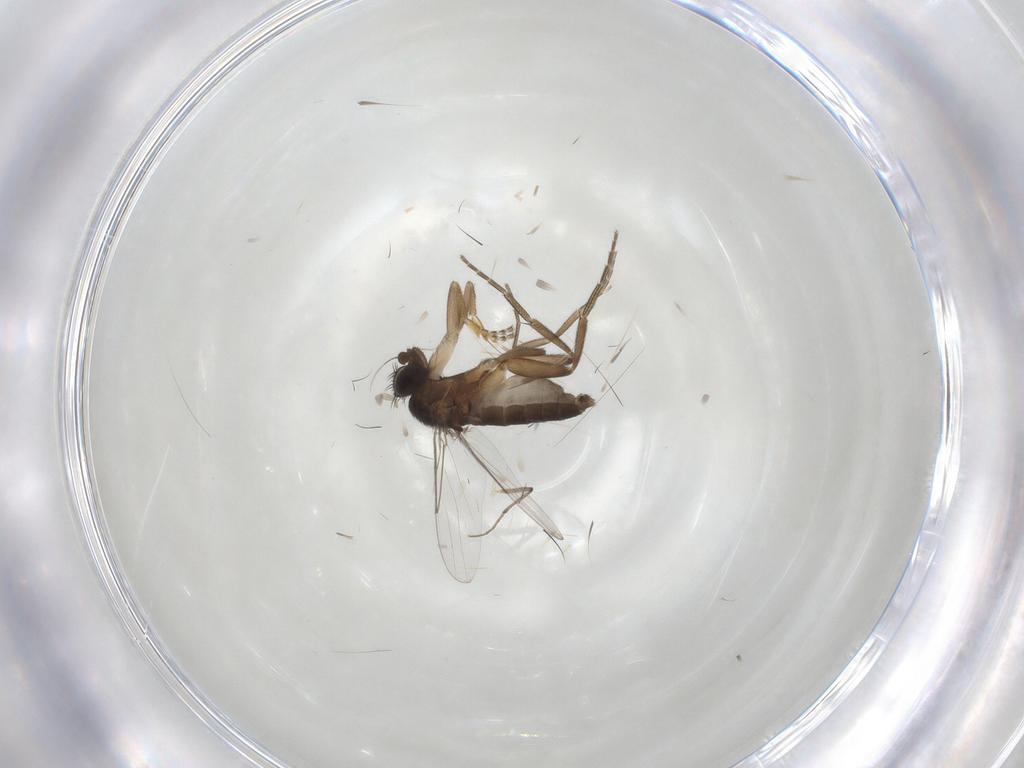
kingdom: Animalia
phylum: Arthropoda
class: Insecta
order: Diptera
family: Phoridae
